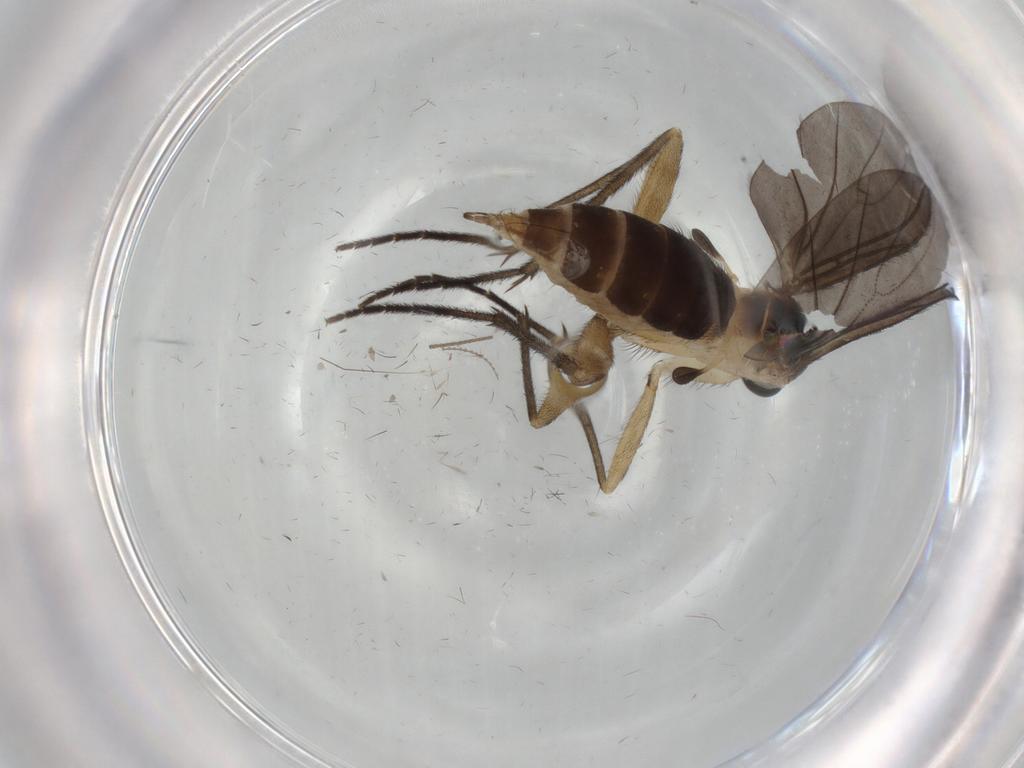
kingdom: Animalia
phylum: Arthropoda
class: Insecta
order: Diptera
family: Sciaridae
